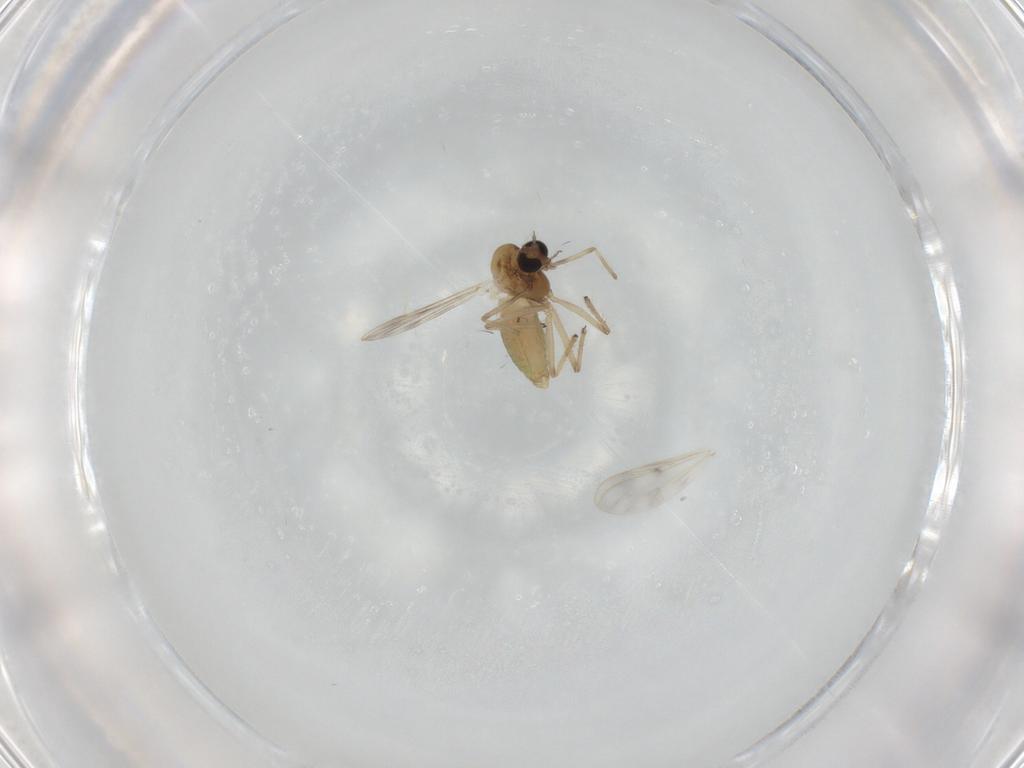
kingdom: Animalia
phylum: Arthropoda
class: Insecta
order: Diptera
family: Chironomidae
